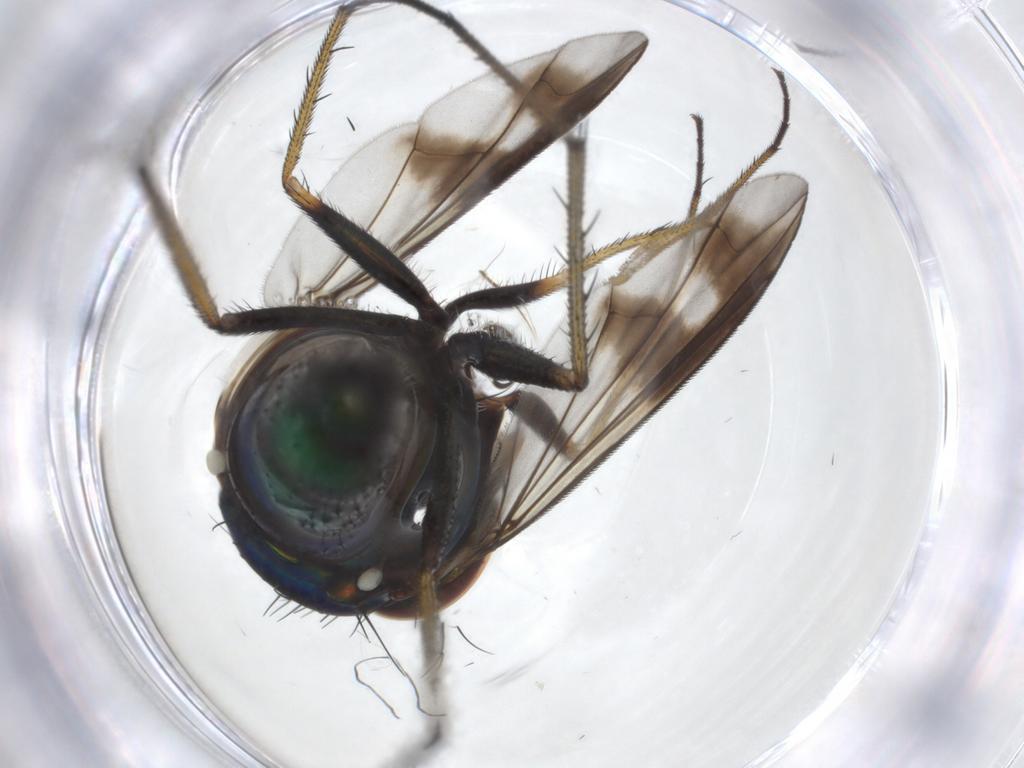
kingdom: Animalia
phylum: Arthropoda
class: Insecta
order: Diptera
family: Dolichopodidae
